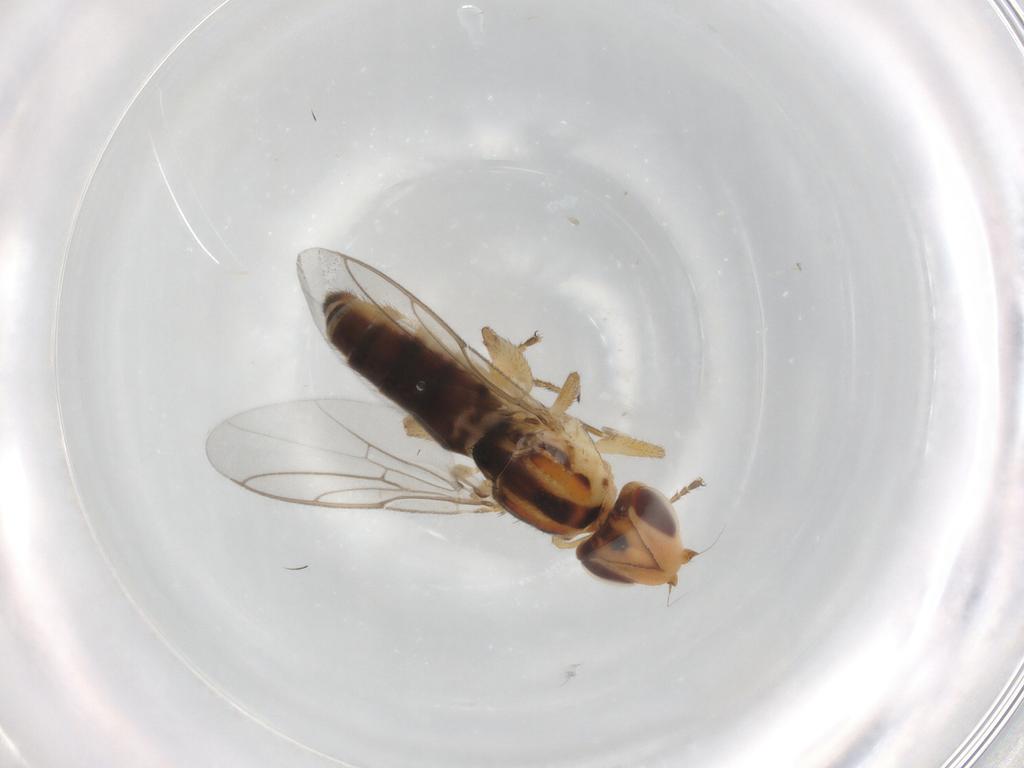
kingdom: Animalia
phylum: Arthropoda
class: Insecta
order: Diptera
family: Chloropidae
